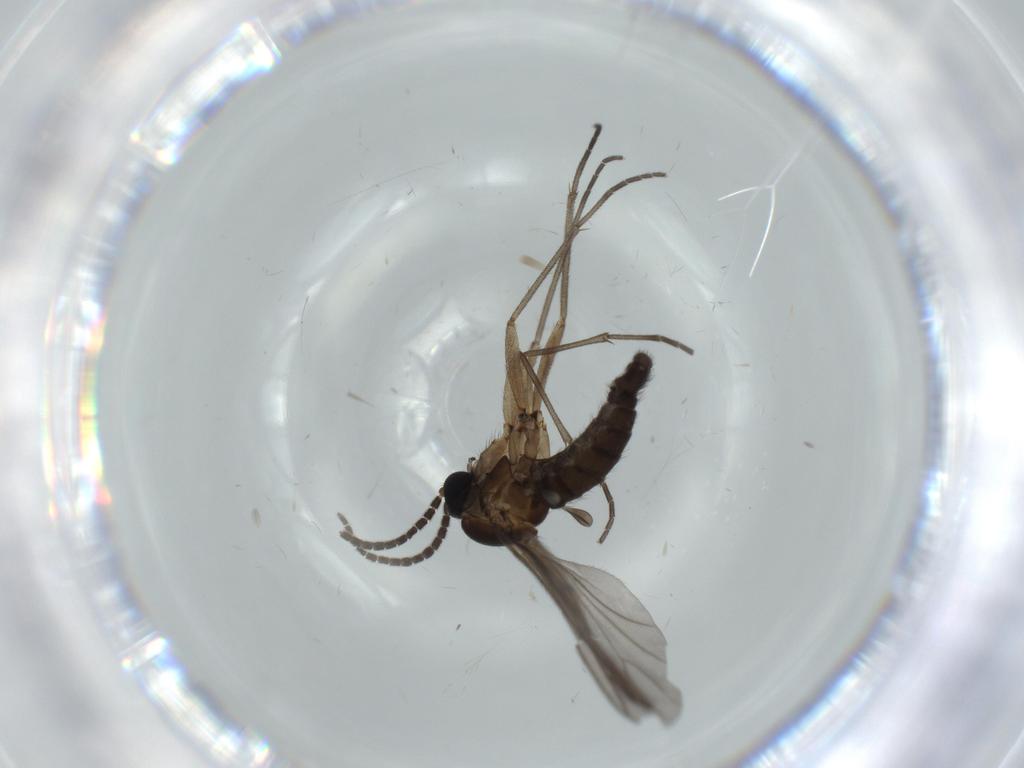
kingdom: Animalia
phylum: Arthropoda
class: Insecta
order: Diptera
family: Sciaridae
